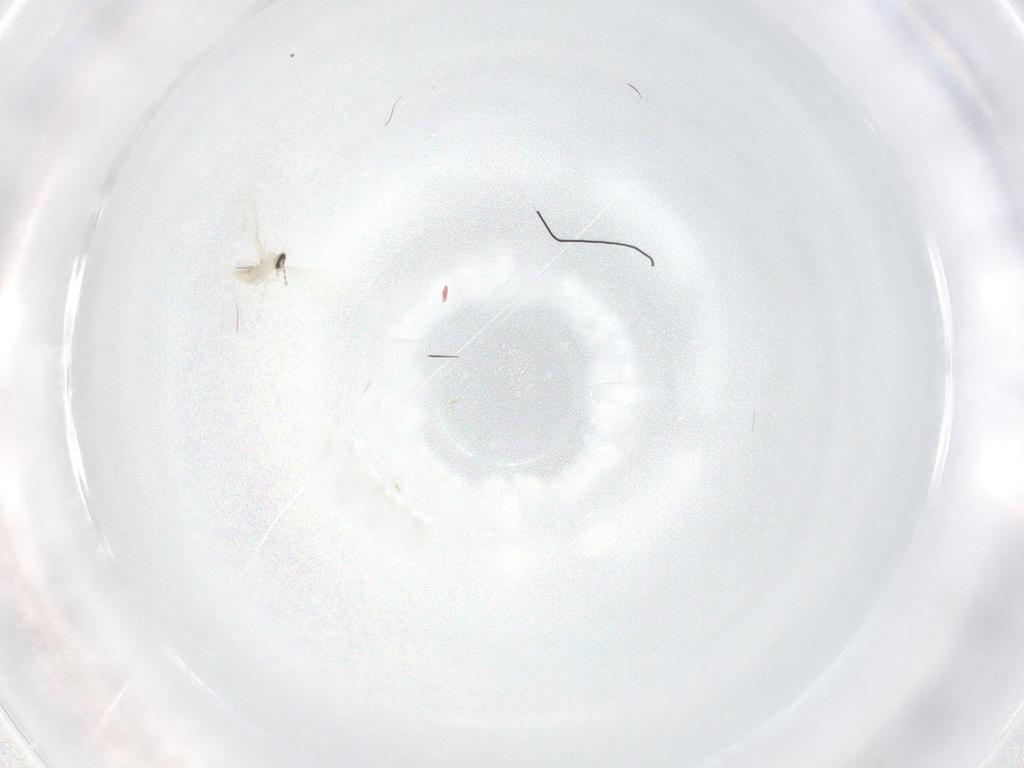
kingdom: Animalia
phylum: Arthropoda
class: Insecta
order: Diptera
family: Cecidomyiidae
